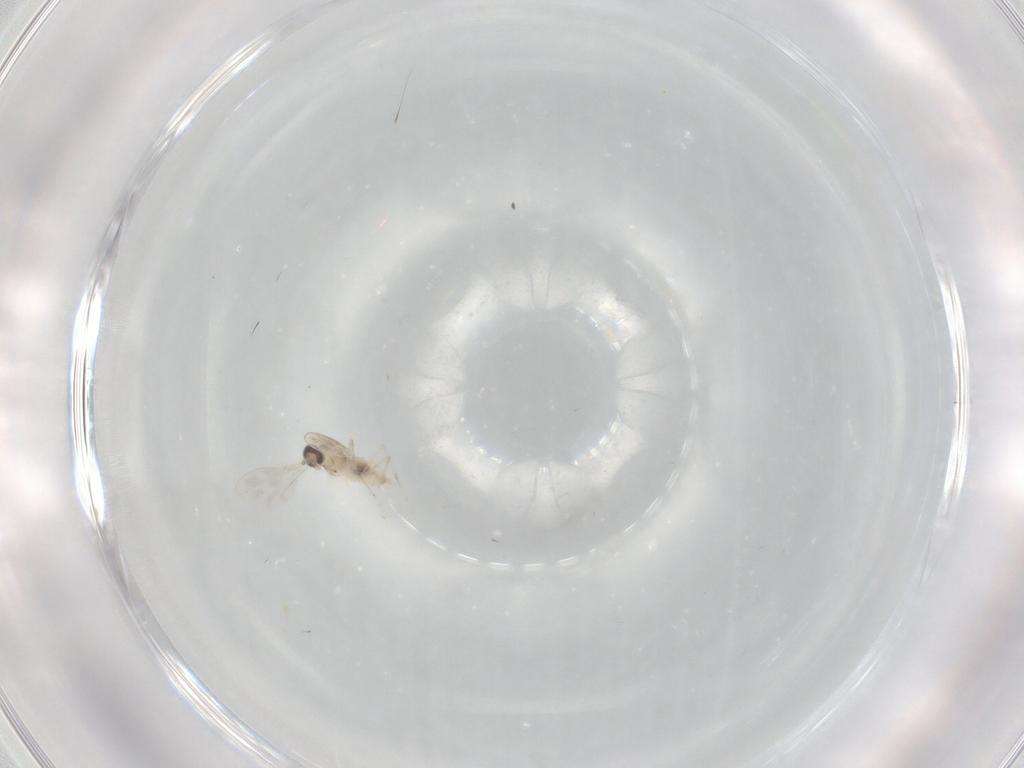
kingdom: Animalia
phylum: Arthropoda
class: Insecta
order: Diptera
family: Cecidomyiidae
